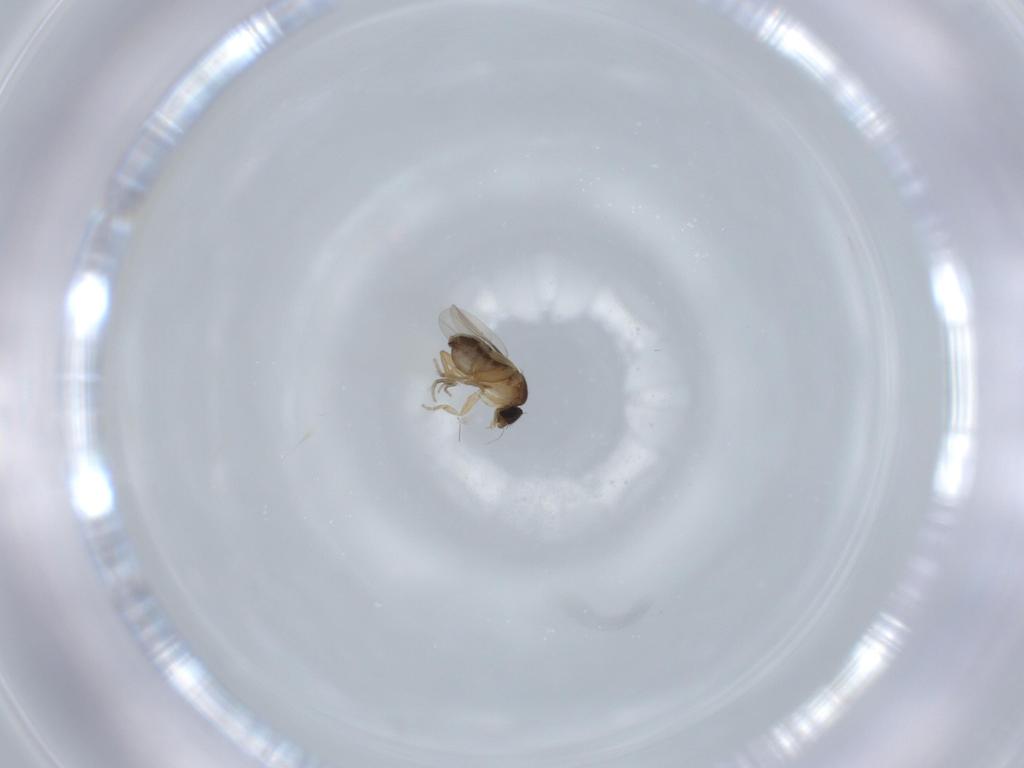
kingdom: Animalia
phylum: Arthropoda
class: Insecta
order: Diptera
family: Phoridae
